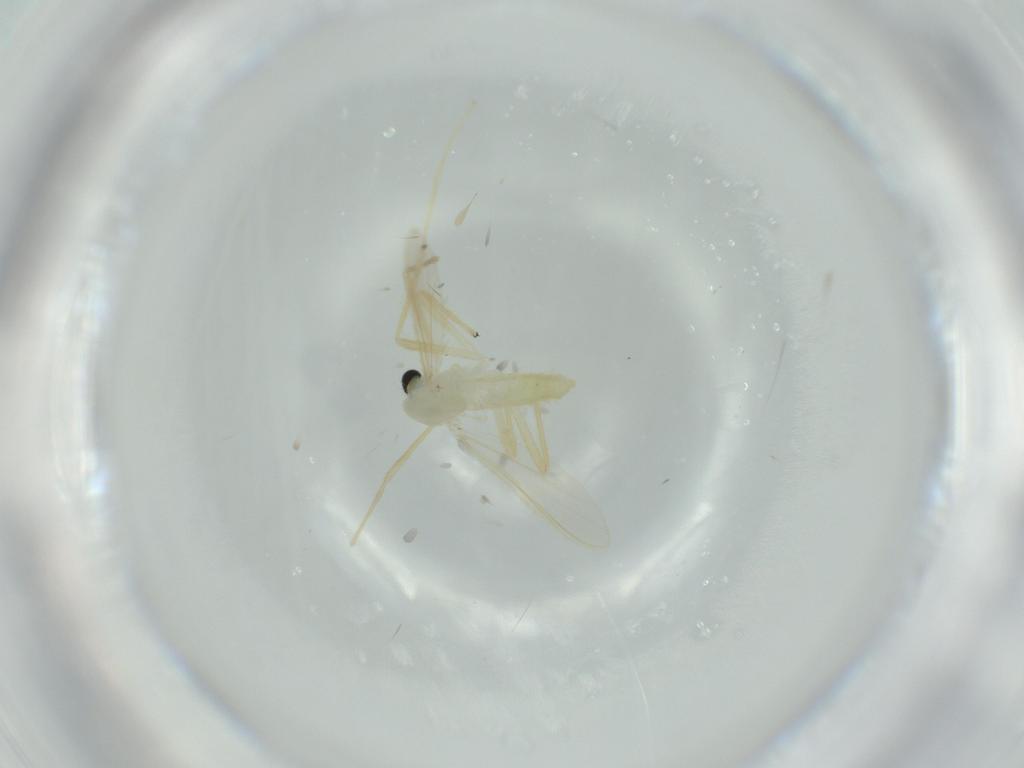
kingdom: Animalia
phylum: Arthropoda
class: Insecta
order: Diptera
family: Chironomidae
